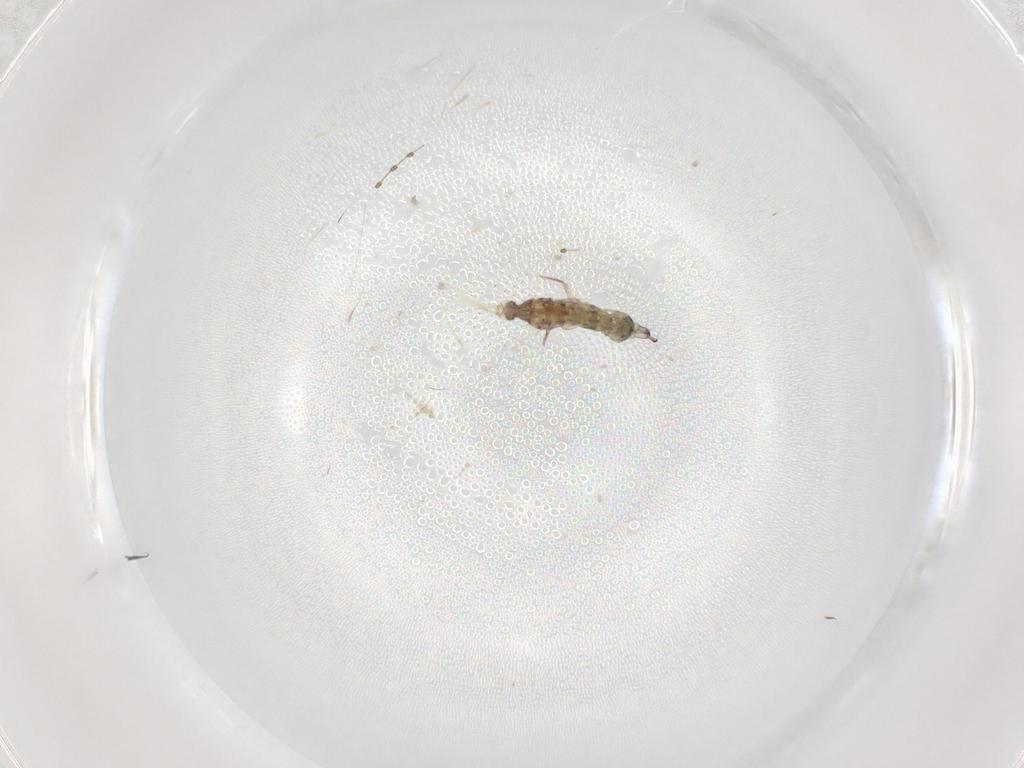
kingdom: Animalia
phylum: Arthropoda
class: Collembola
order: Entomobryomorpha
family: Isotomidae
